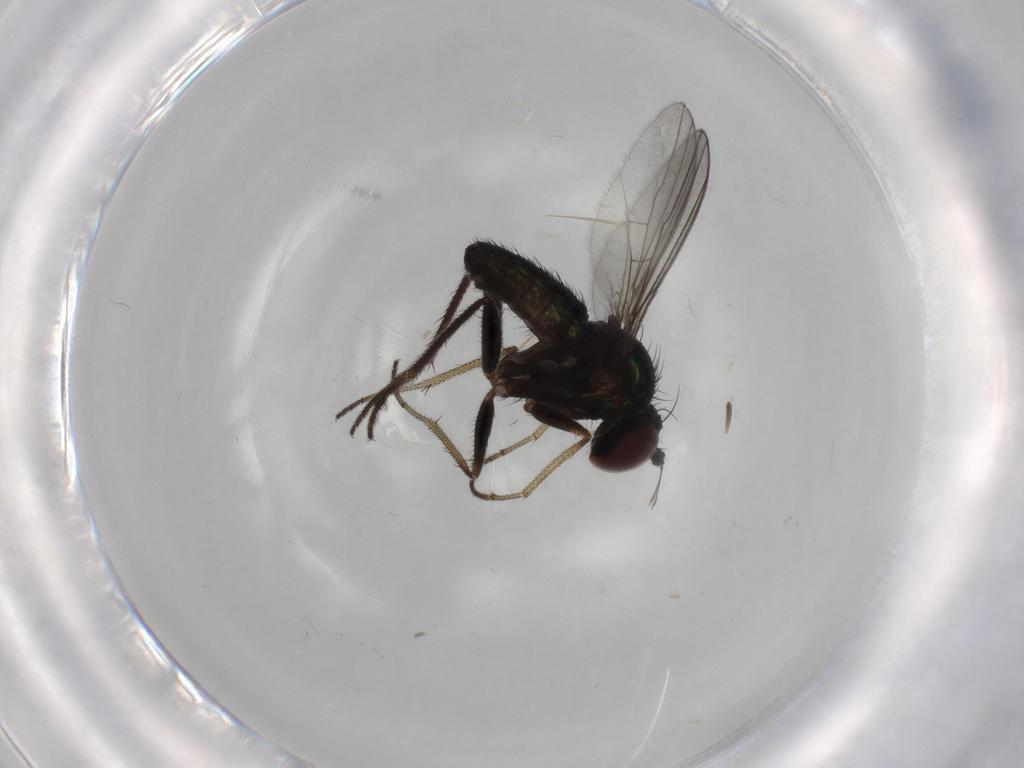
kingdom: Animalia
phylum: Arthropoda
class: Insecta
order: Diptera
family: Dolichopodidae
